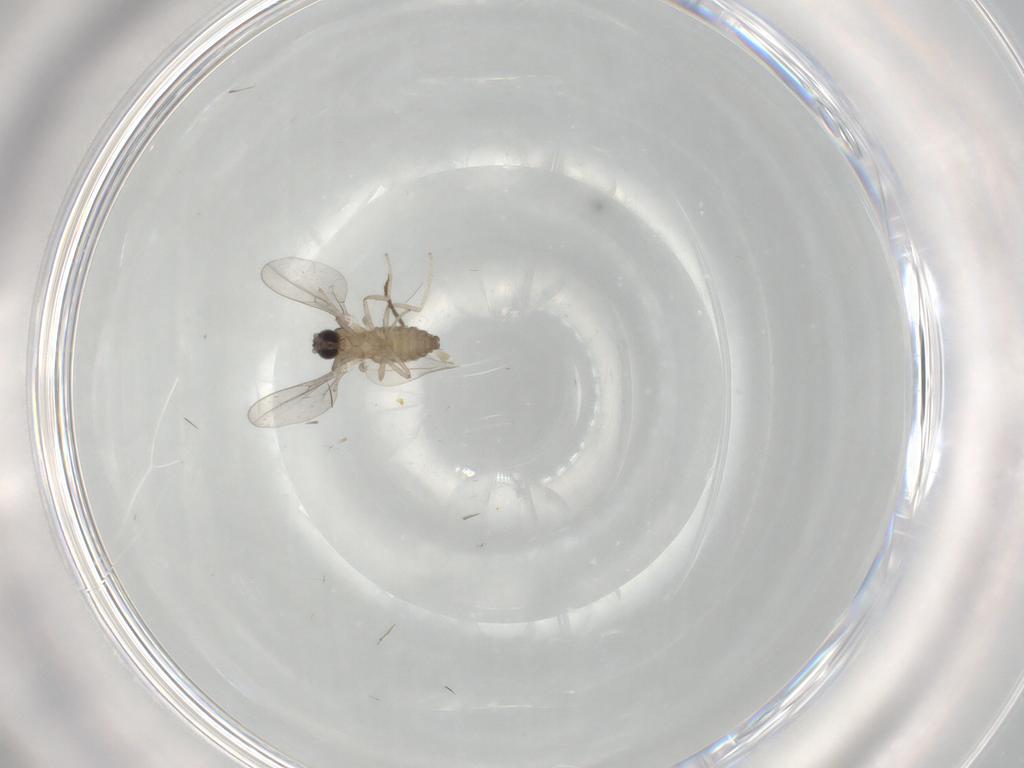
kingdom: Animalia
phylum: Arthropoda
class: Insecta
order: Diptera
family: Cecidomyiidae
